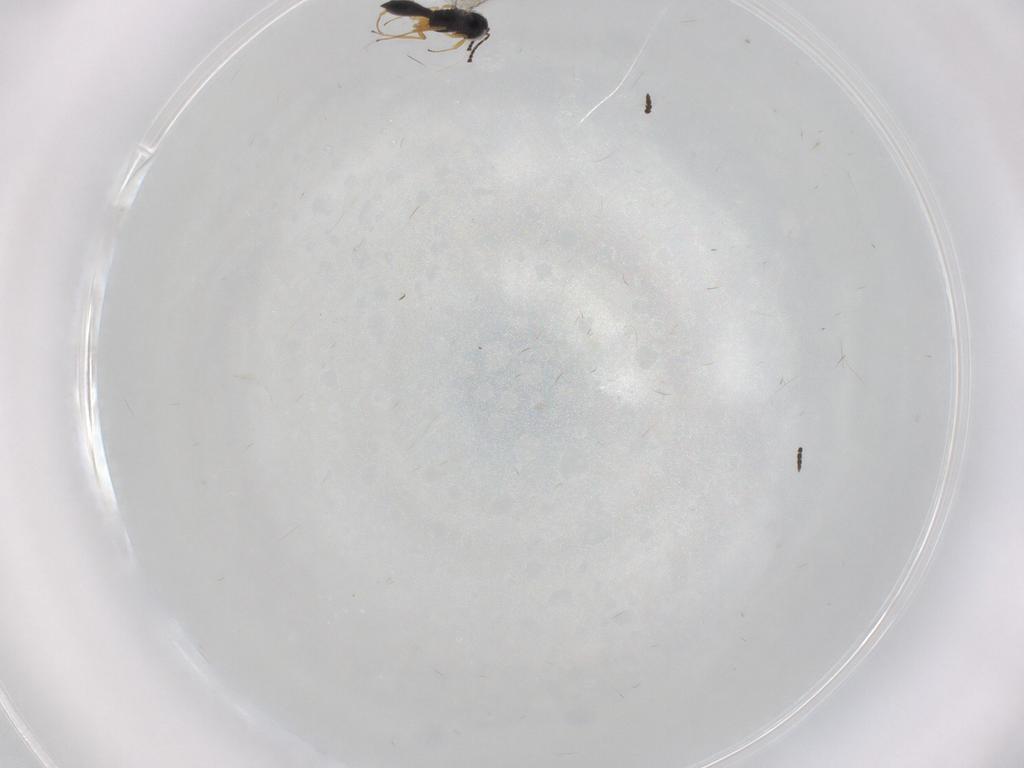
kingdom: Animalia
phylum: Arthropoda
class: Insecta
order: Hymenoptera
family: Scelionidae
